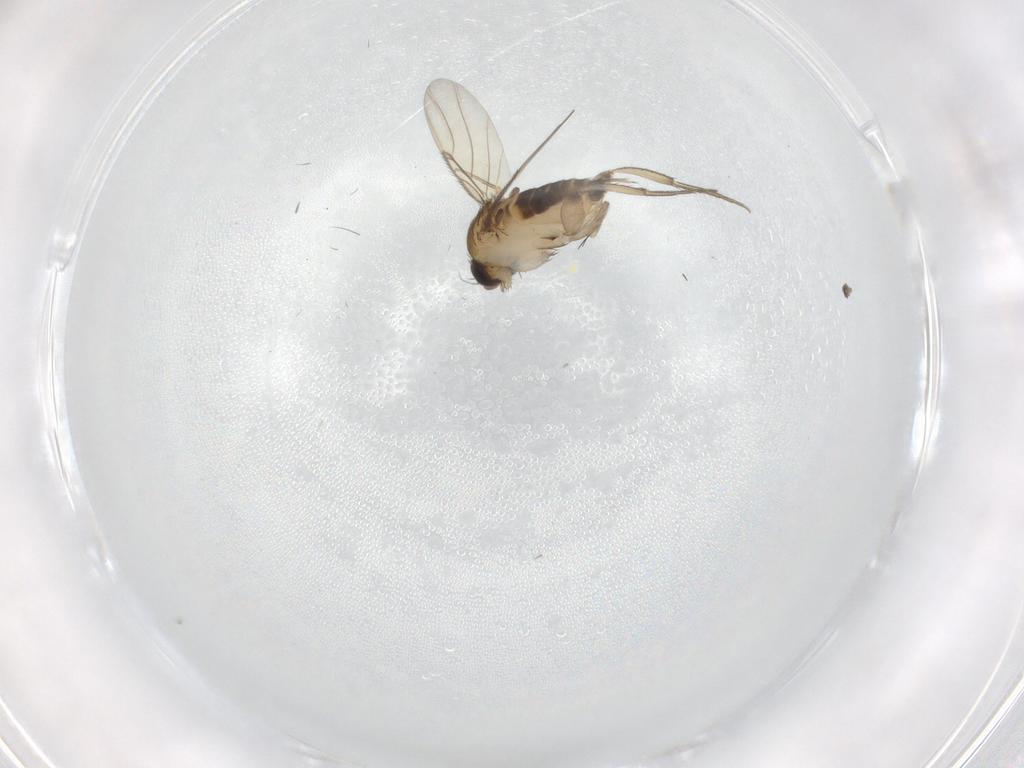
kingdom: Animalia
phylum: Arthropoda
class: Insecta
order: Diptera
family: Phoridae
